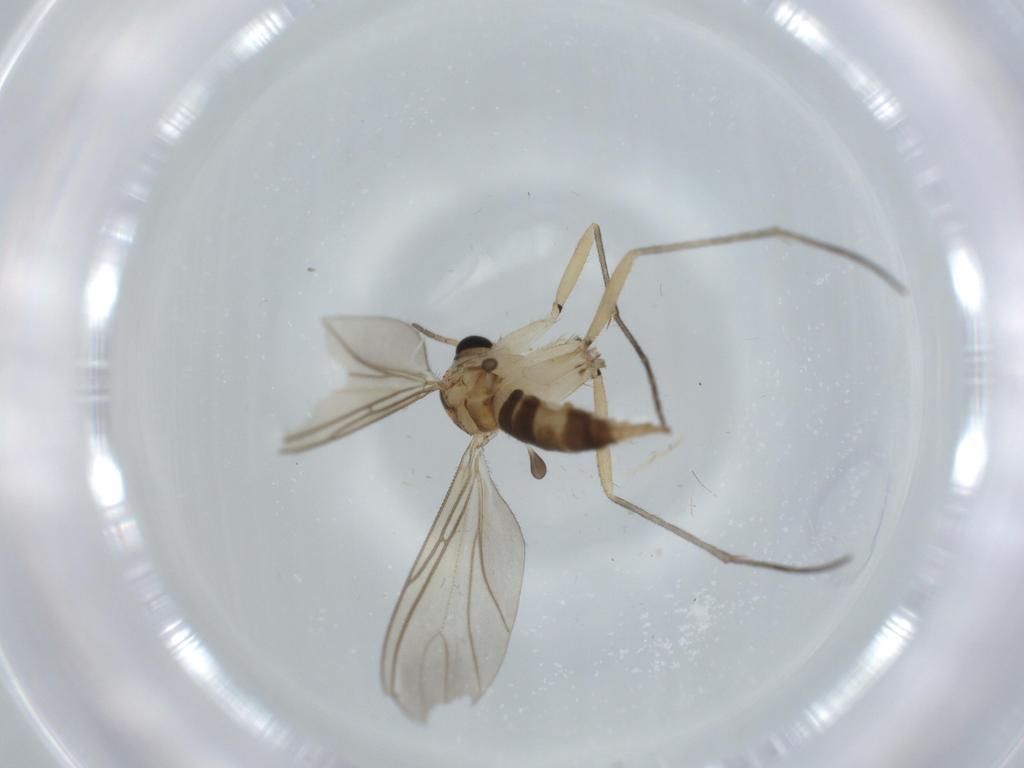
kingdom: Animalia
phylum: Arthropoda
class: Insecta
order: Diptera
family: Sciaridae
